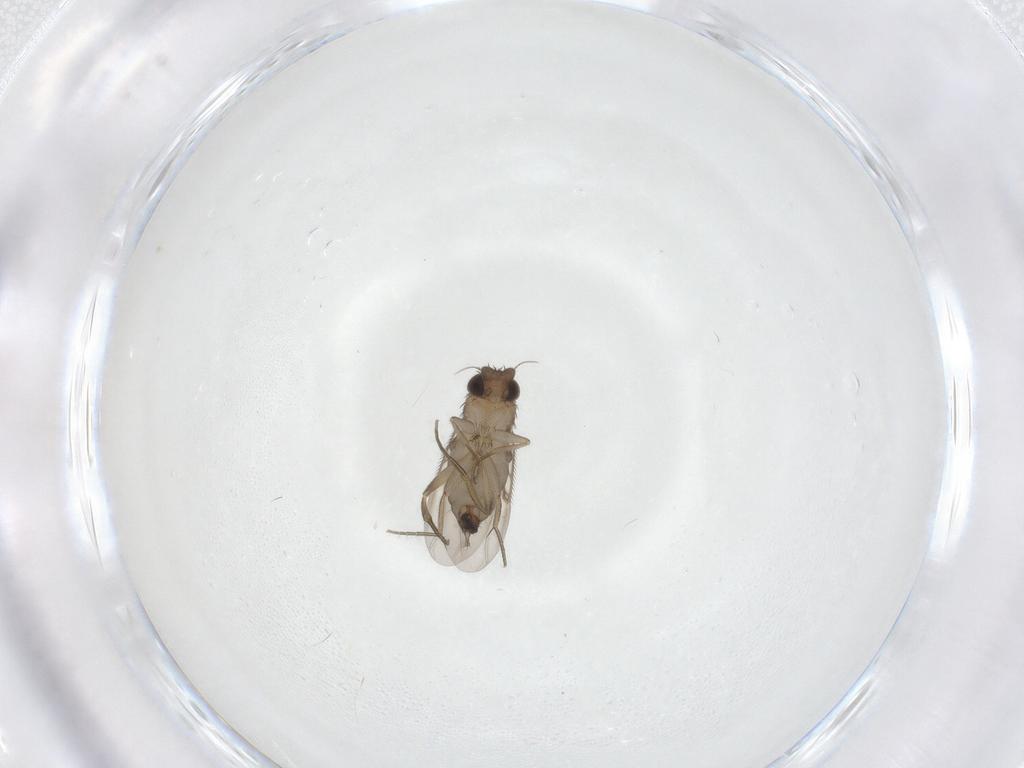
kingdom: Animalia
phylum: Arthropoda
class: Insecta
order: Diptera
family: Phoridae
